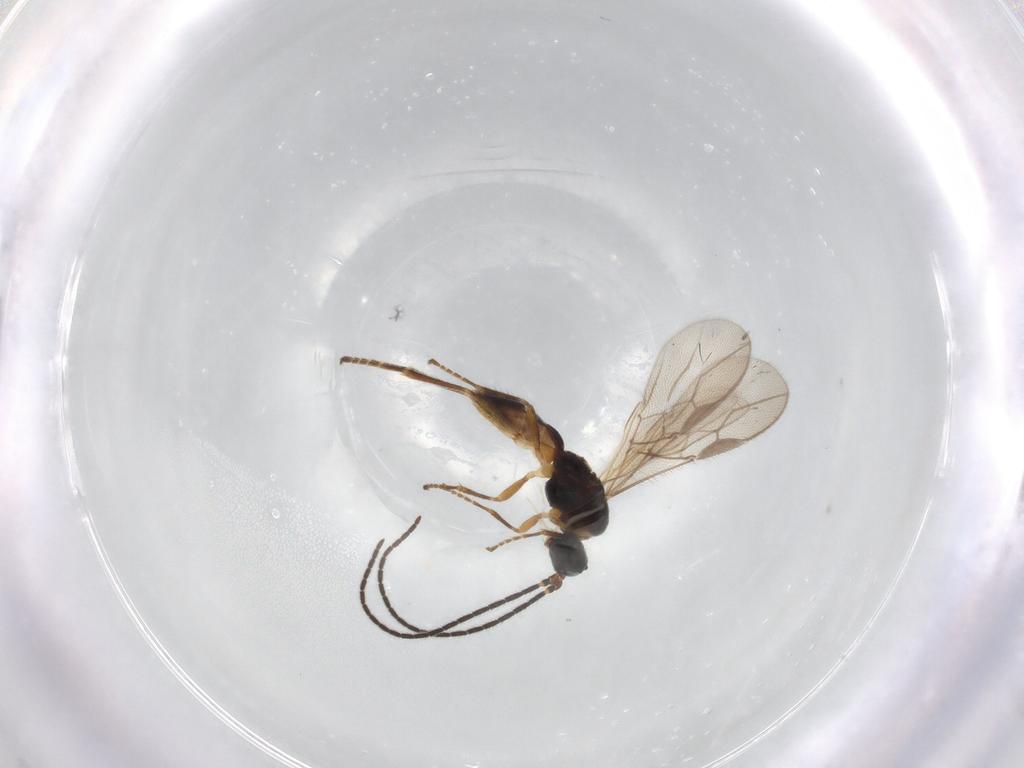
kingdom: Animalia
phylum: Arthropoda
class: Insecta
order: Hymenoptera
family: Braconidae
